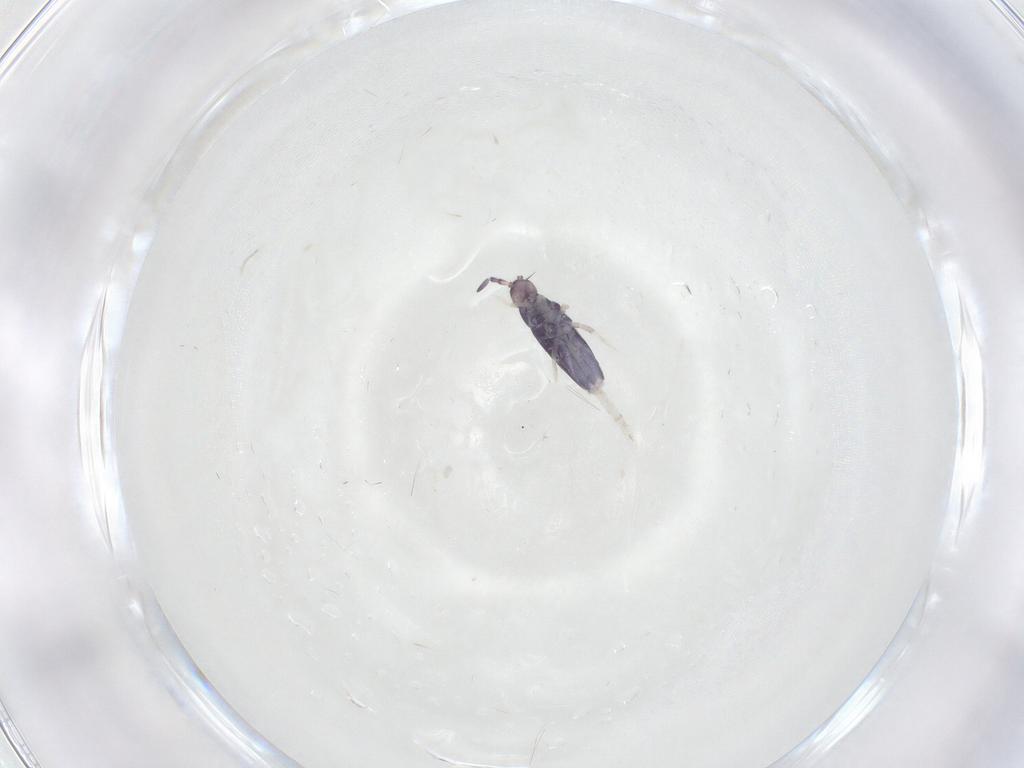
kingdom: Animalia
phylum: Arthropoda
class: Collembola
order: Entomobryomorpha
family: Entomobryidae
